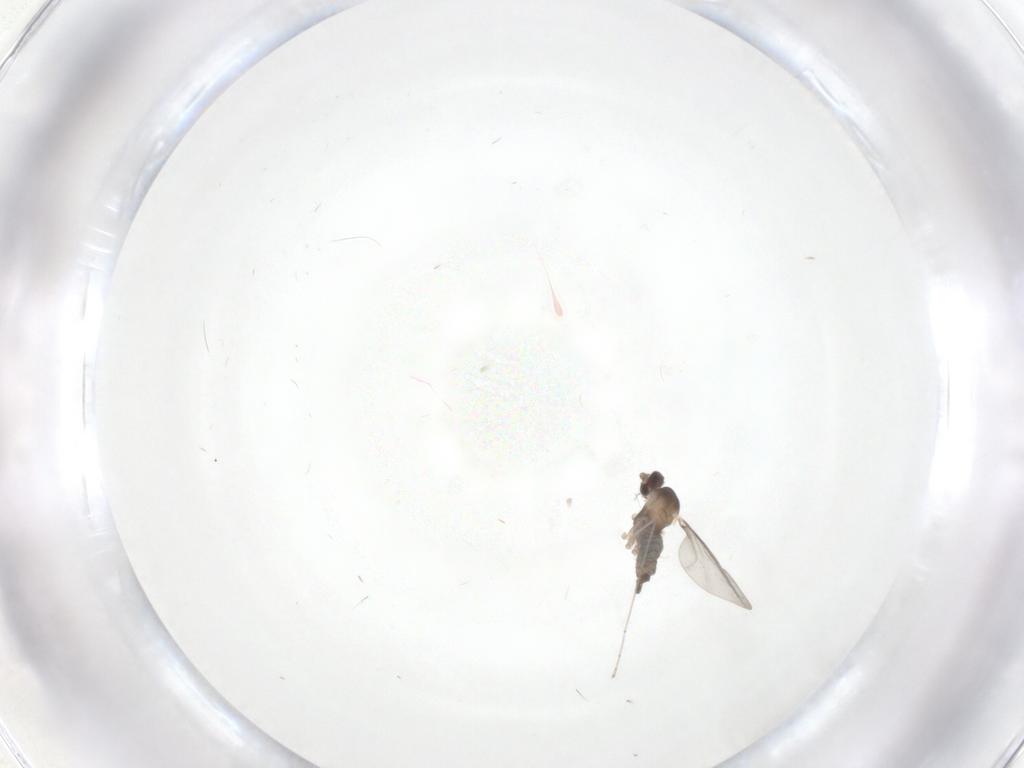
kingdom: Animalia
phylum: Arthropoda
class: Insecta
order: Diptera
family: Cecidomyiidae
